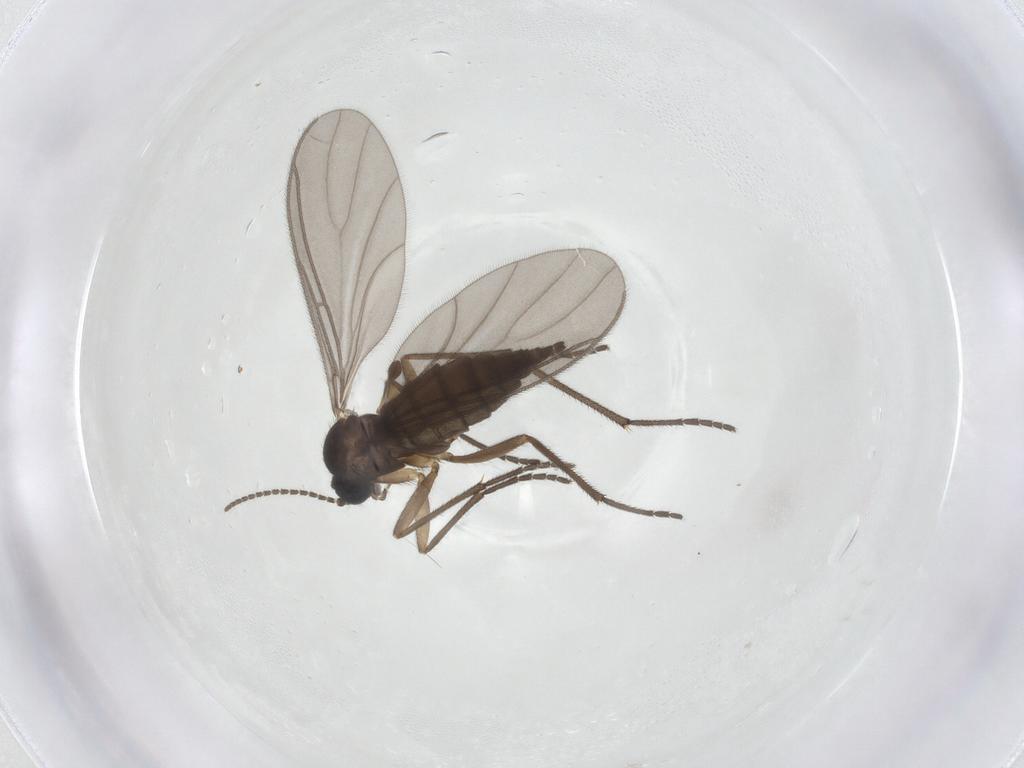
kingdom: Animalia
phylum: Arthropoda
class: Insecta
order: Diptera
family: Sciaridae
